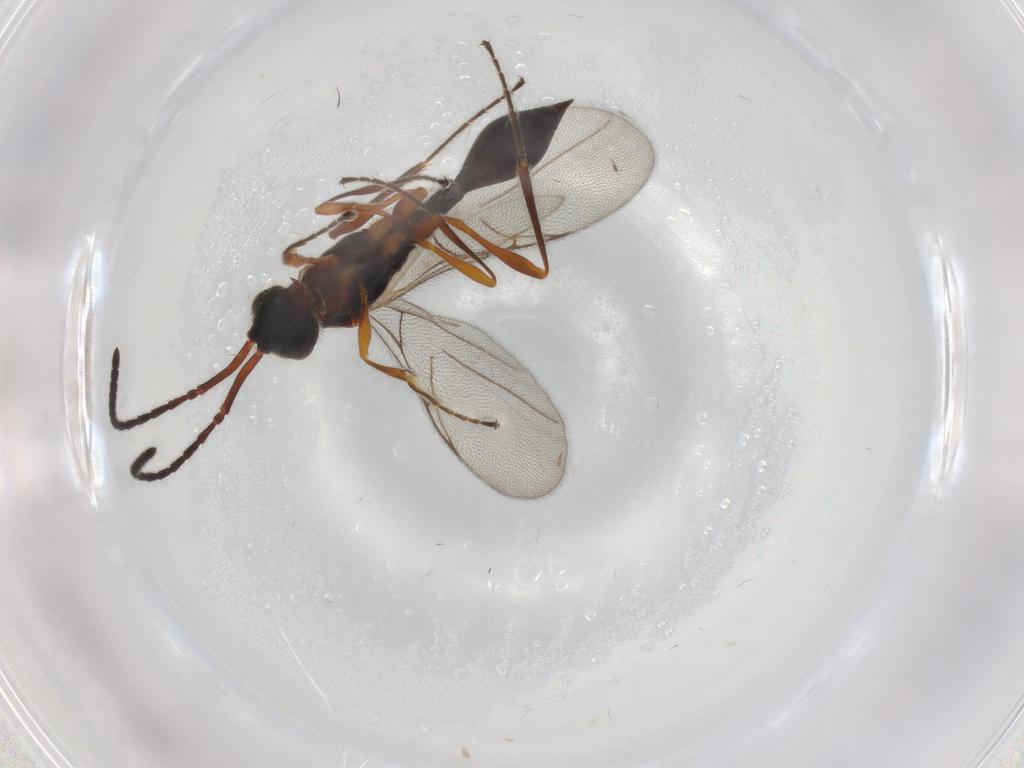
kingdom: Animalia
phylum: Arthropoda
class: Insecta
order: Hymenoptera
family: Diapriidae
